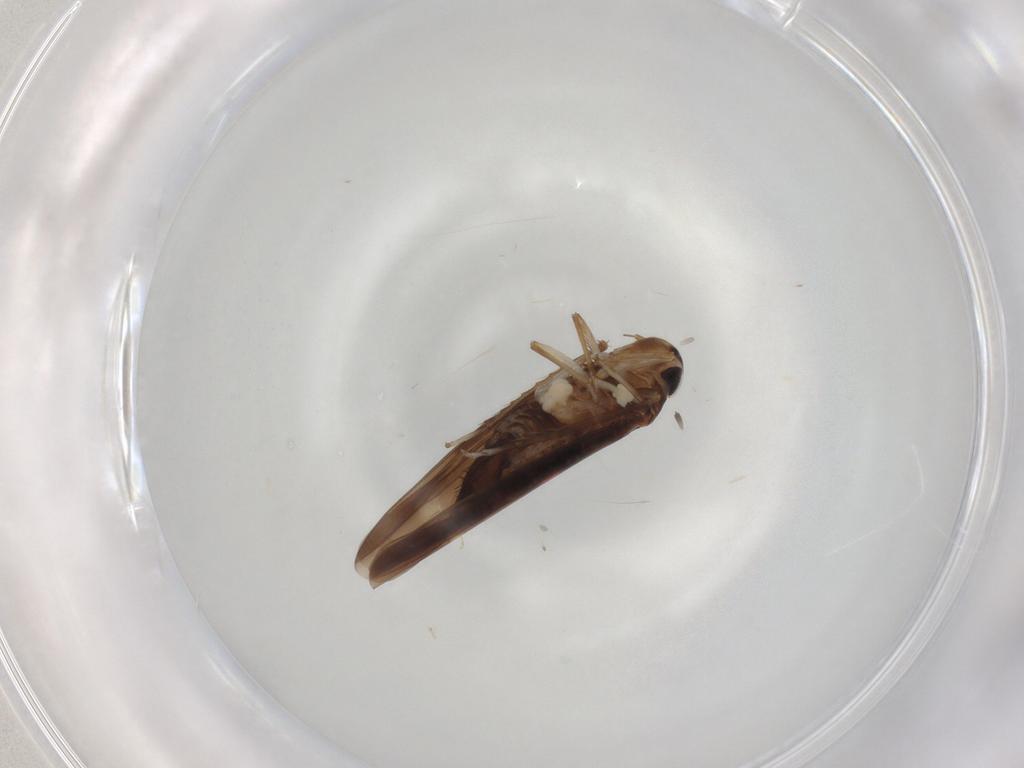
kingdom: Animalia
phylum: Arthropoda
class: Insecta
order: Hemiptera
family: Cicadellidae
